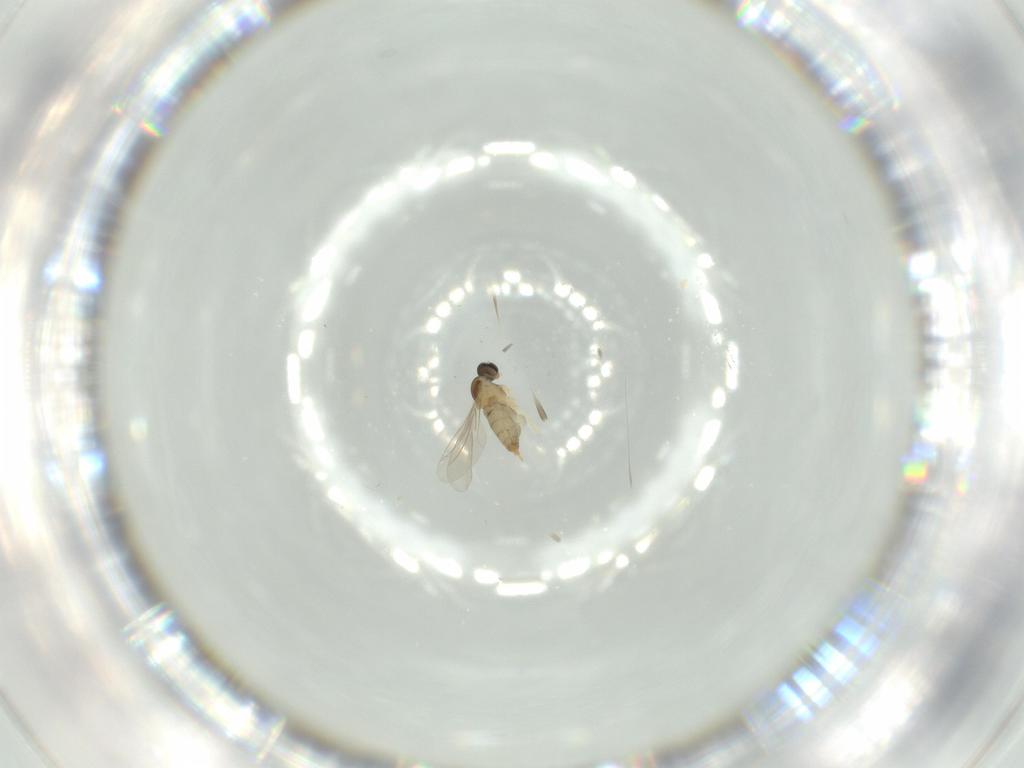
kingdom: Animalia
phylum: Arthropoda
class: Insecta
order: Diptera
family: Cecidomyiidae
